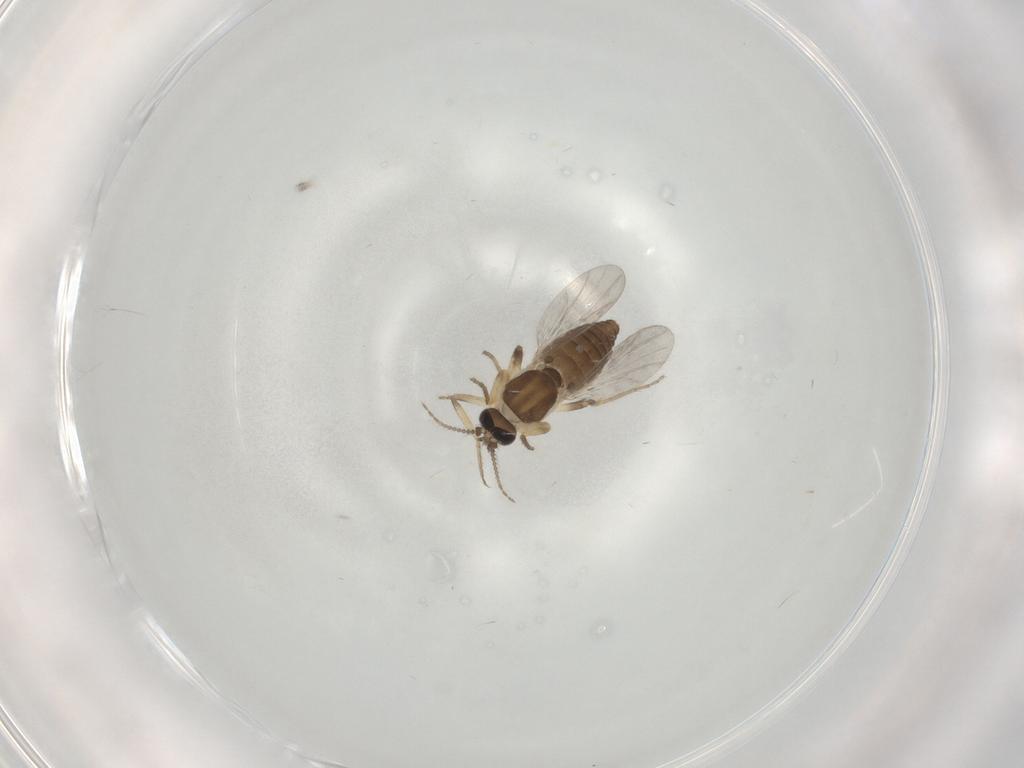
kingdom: Animalia
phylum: Arthropoda
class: Insecta
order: Diptera
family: Ceratopogonidae
